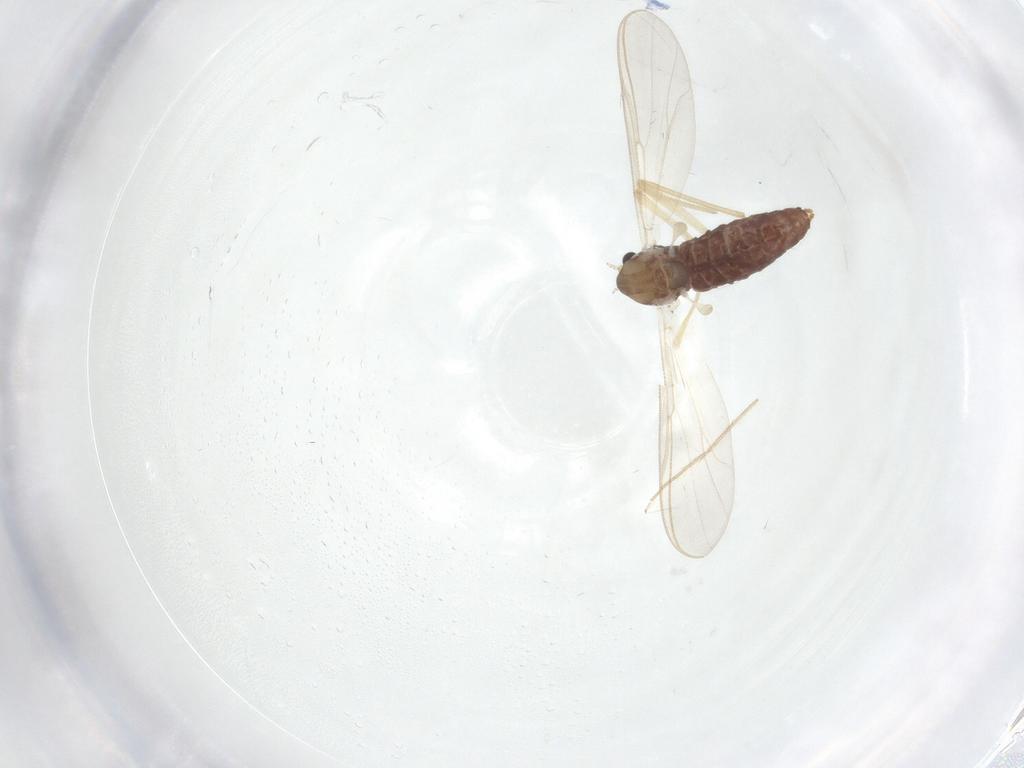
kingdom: Animalia
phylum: Arthropoda
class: Insecta
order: Diptera
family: Chironomidae
